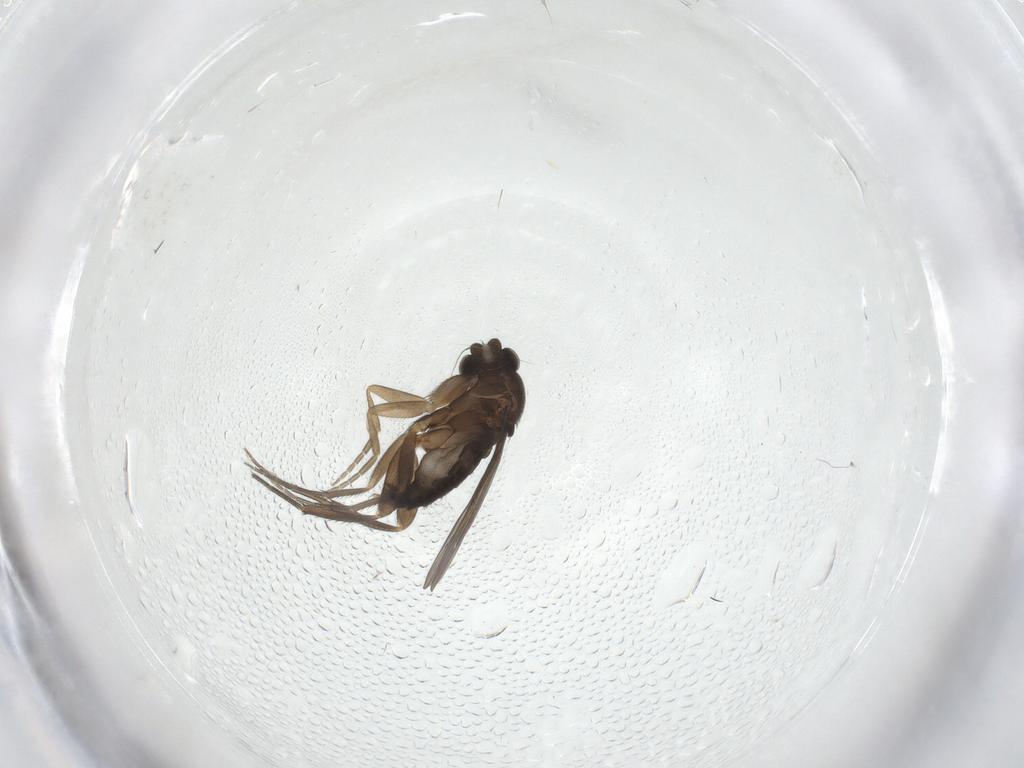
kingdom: Animalia
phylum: Arthropoda
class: Insecta
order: Diptera
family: Phoridae
